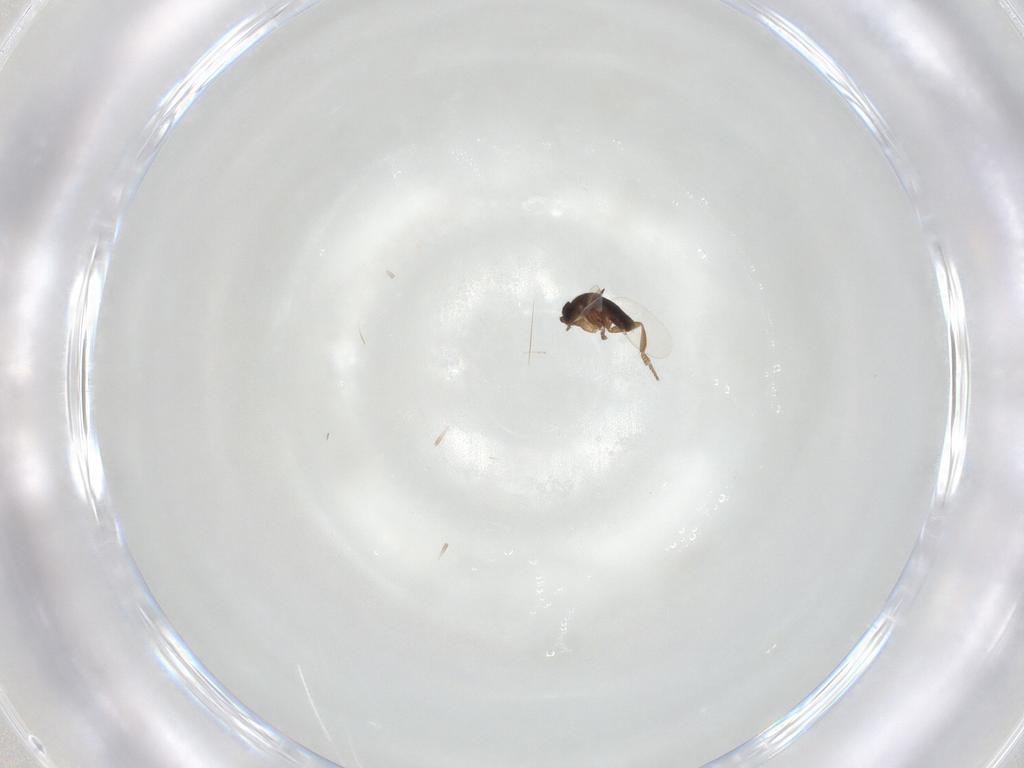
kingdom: Animalia
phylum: Arthropoda
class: Insecta
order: Diptera
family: Phoridae
